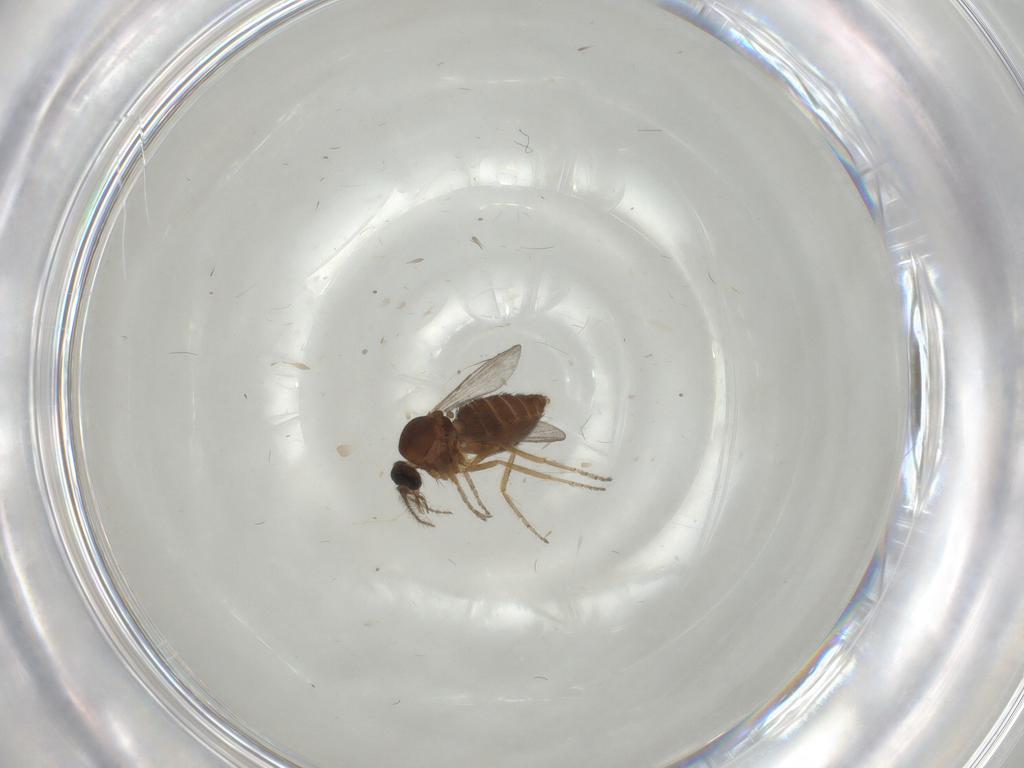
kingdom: Animalia
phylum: Arthropoda
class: Insecta
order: Diptera
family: Ceratopogonidae
